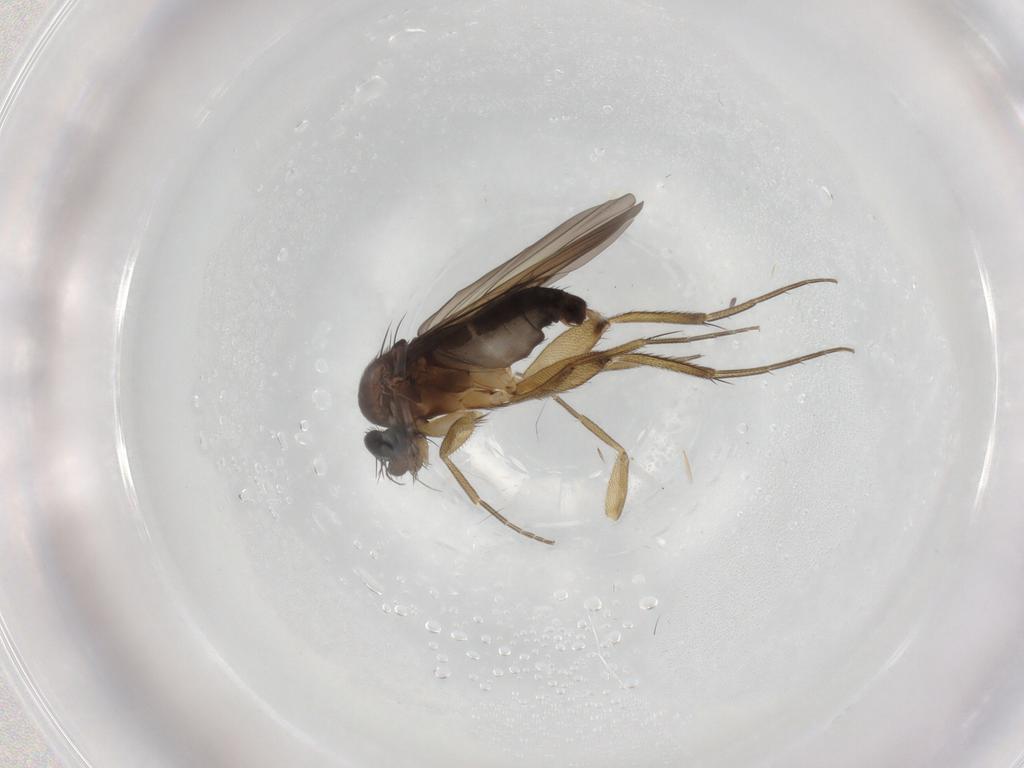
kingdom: Animalia
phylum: Arthropoda
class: Insecta
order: Diptera
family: Phoridae
